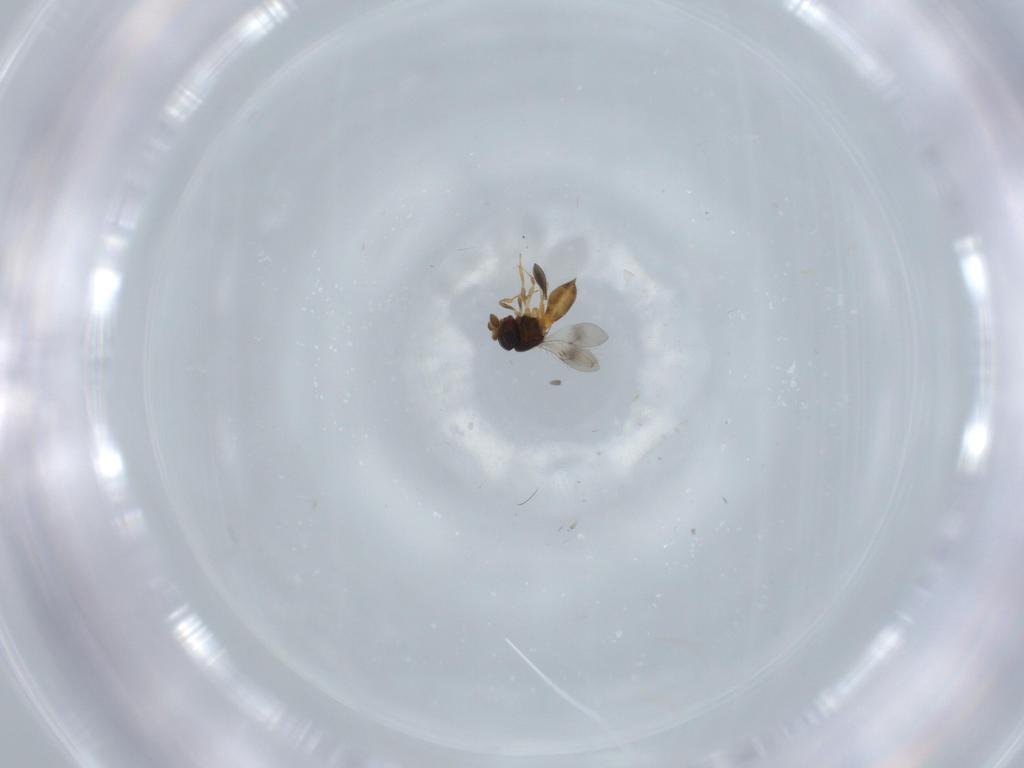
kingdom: Animalia
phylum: Arthropoda
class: Insecta
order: Hymenoptera
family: Scelionidae
